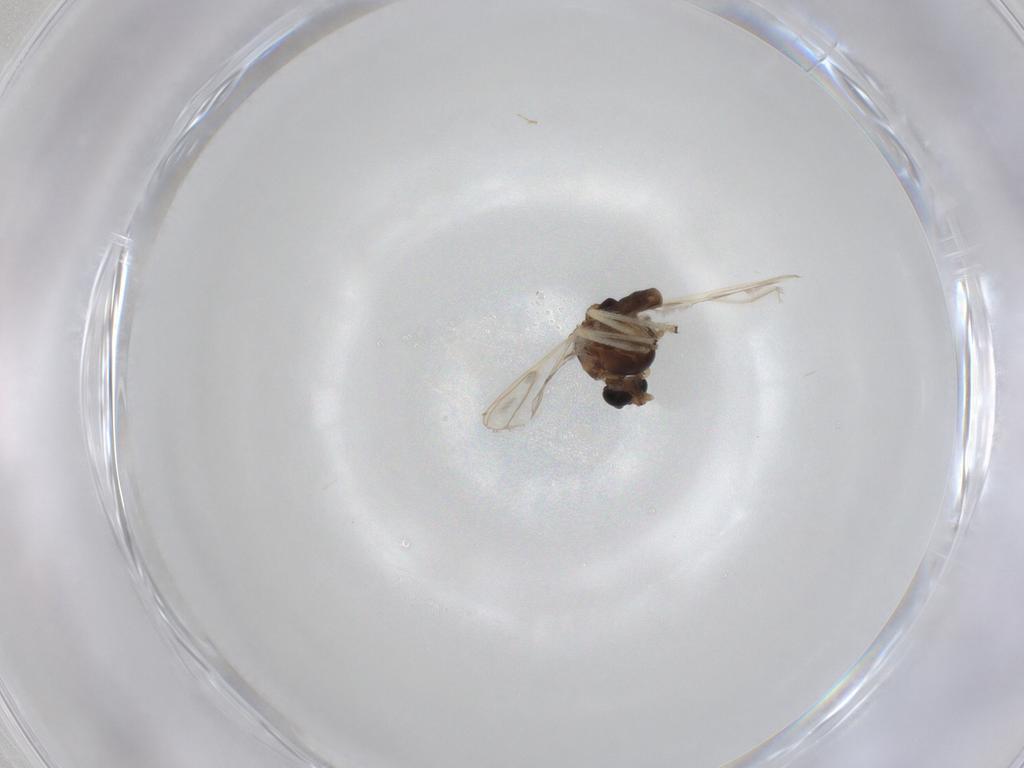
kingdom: Animalia
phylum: Arthropoda
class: Insecta
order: Diptera
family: Chironomidae
